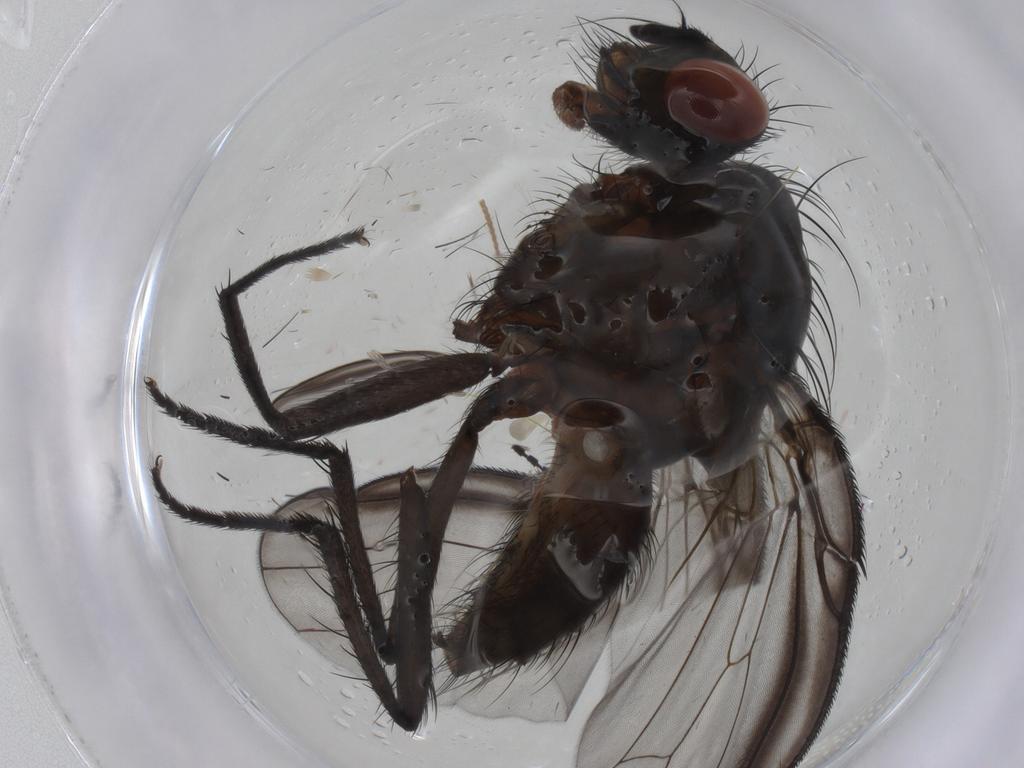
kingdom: Animalia
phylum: Arthropoda
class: Insecta
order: Diptera
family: Anthomyiidae
